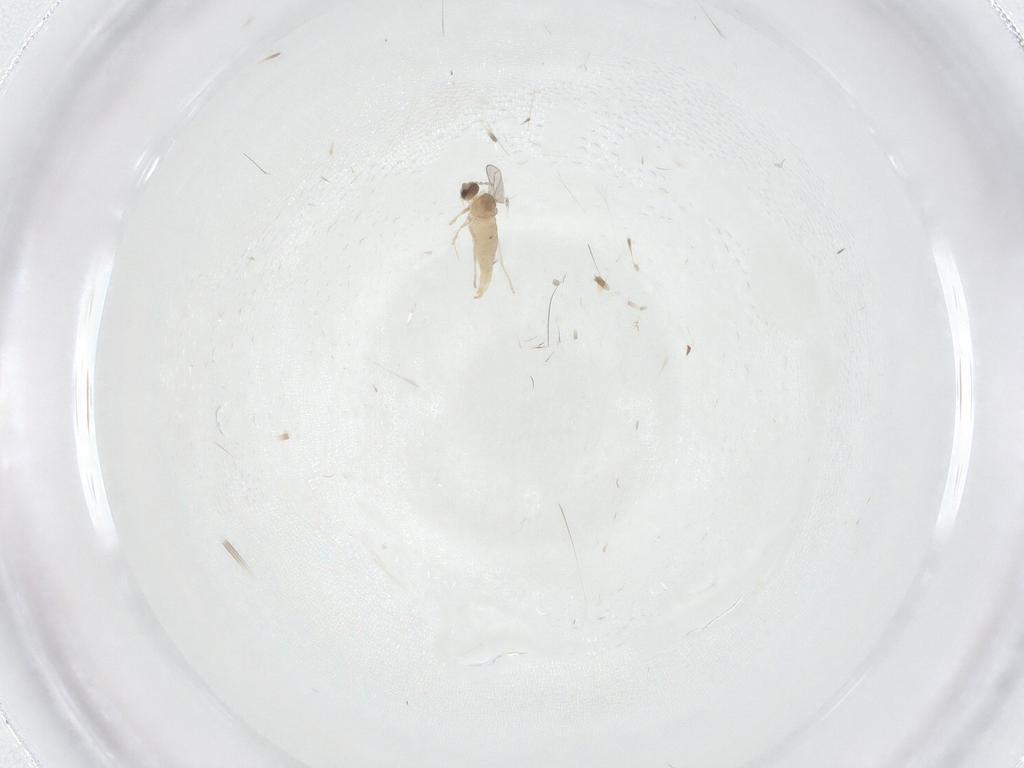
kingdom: Animalia
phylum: Arthropoda
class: Insecta
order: Diptera
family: Cecidomyiidae
